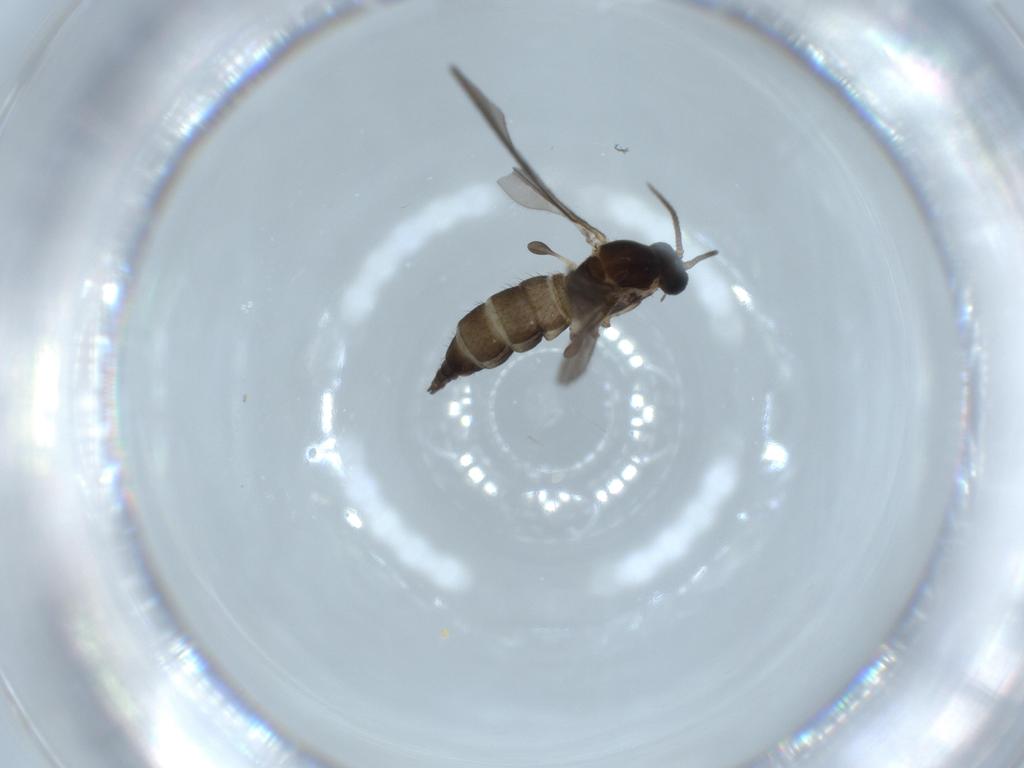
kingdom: Animalia
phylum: Arthropoda
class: Insecta
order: Diptera
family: Sciaridae
